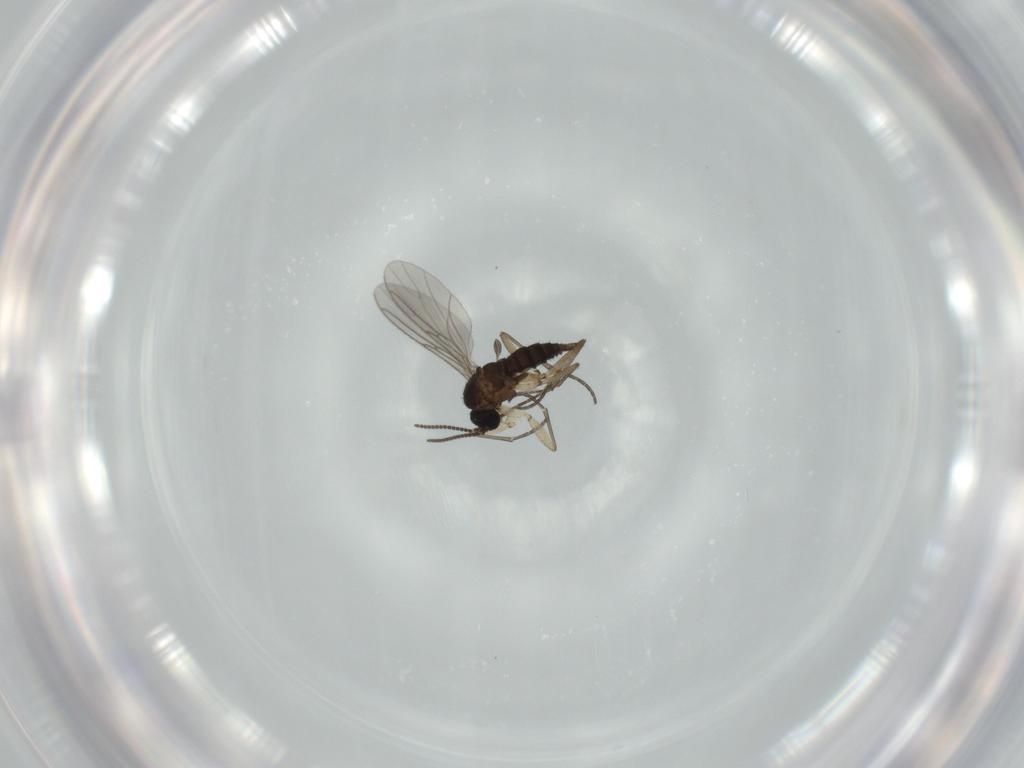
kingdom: Animalia
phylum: Arthropoda
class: Insecta
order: Diptera
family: Sciaridae
